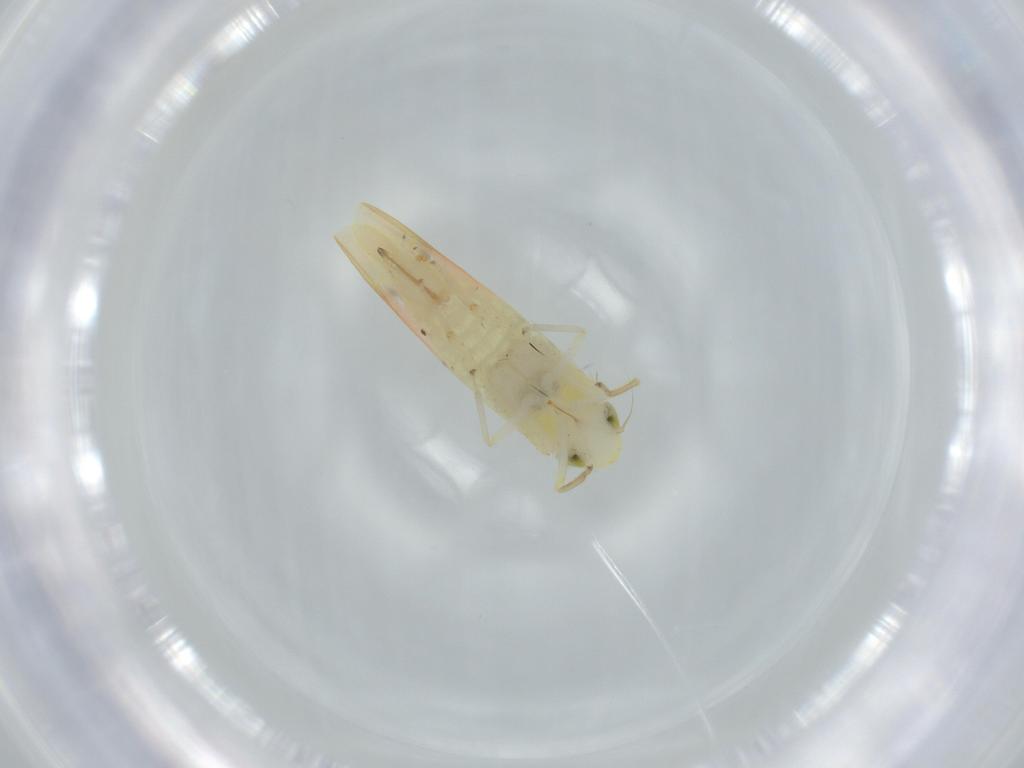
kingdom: Animalia
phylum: Arthropoda
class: Insecta
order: Hemiptera
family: Cicadellidae
